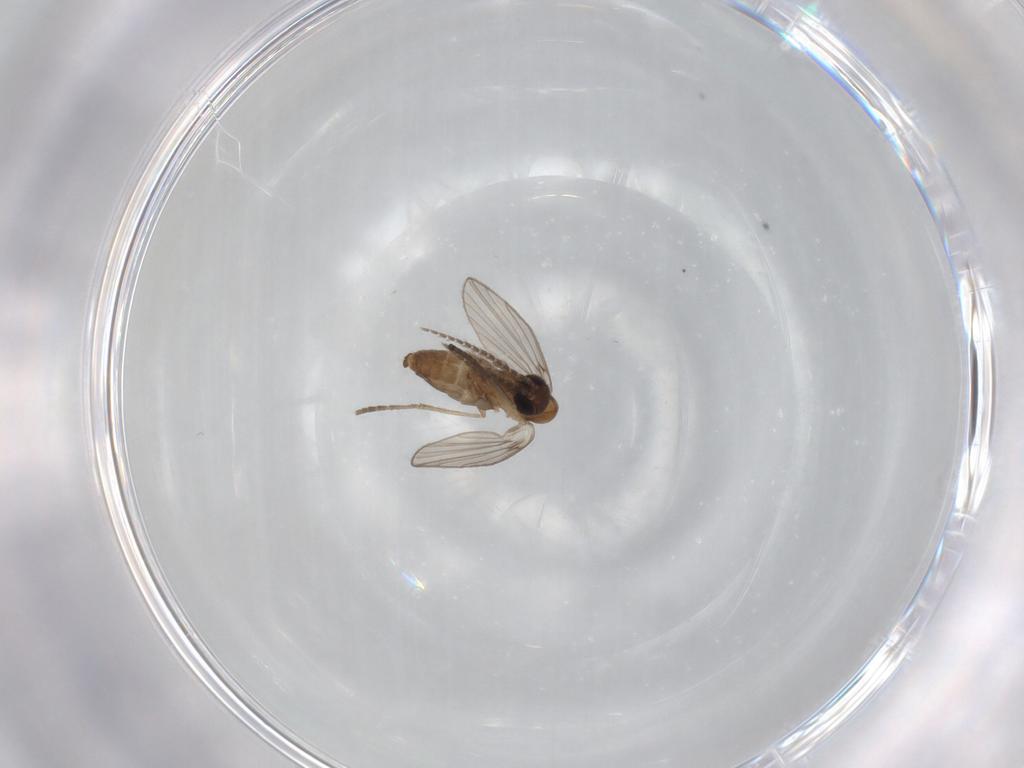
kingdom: Animalia
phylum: Arthropoda
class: Insecta
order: Diptera
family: Psychodidae
